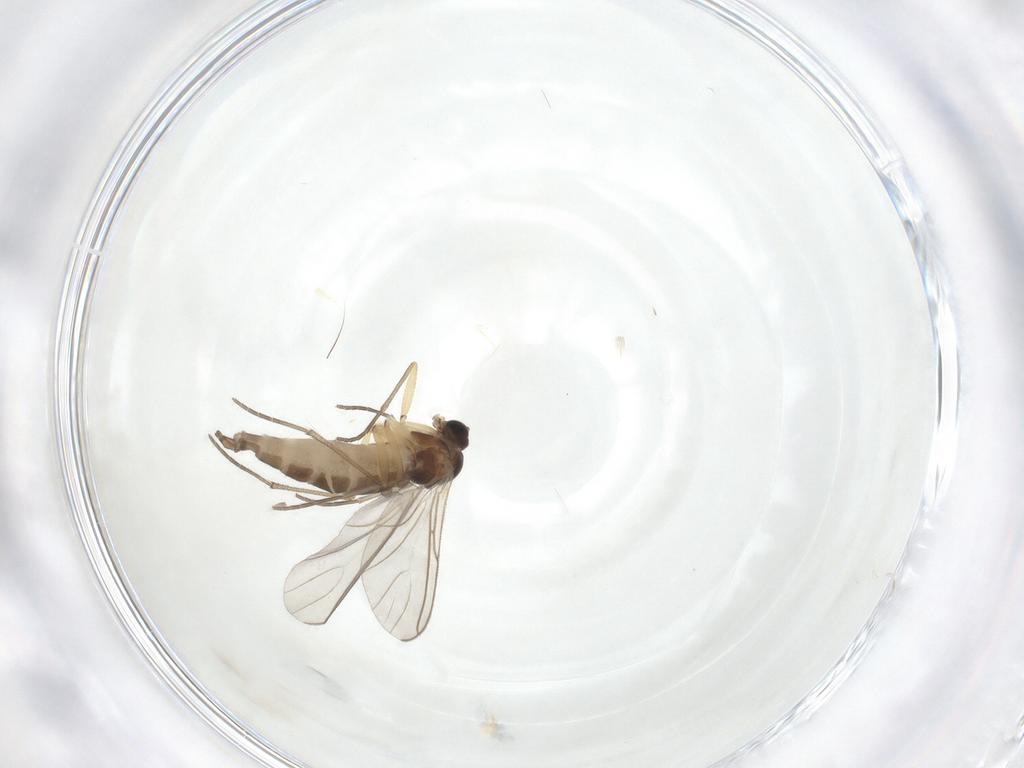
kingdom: Animalia
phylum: Arthropoda
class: Insecta
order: Diptera
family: Sciaridae
